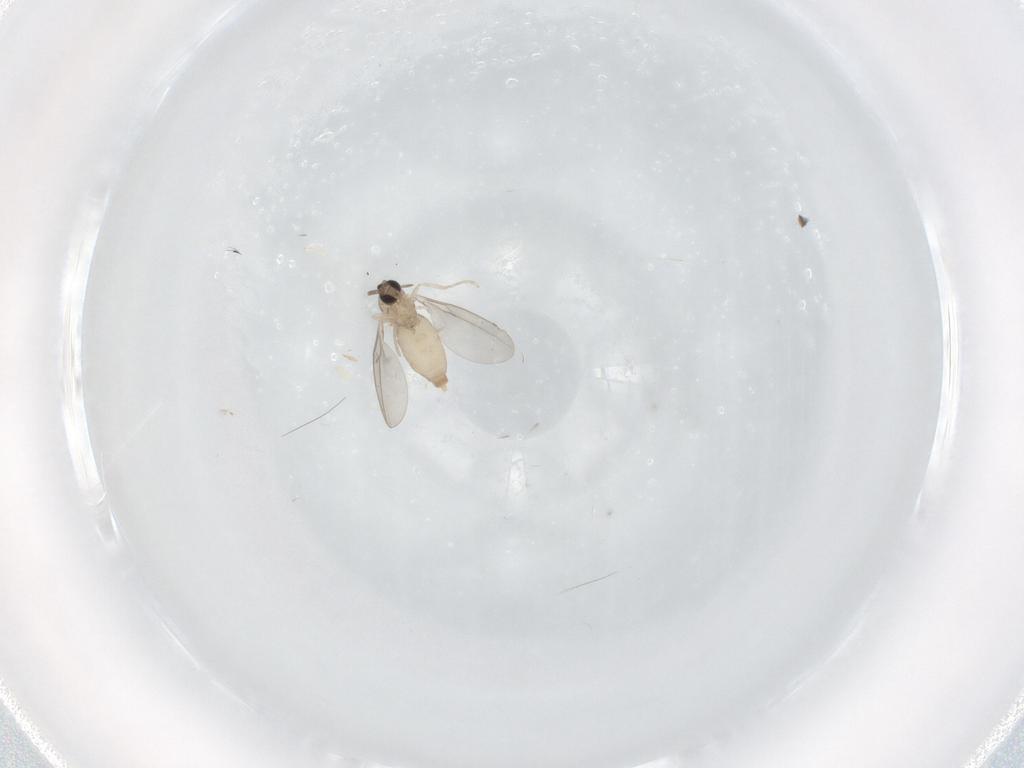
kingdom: Animalia
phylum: Arthropoda
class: Insecta
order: Diptera
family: Cecidomyiidae
